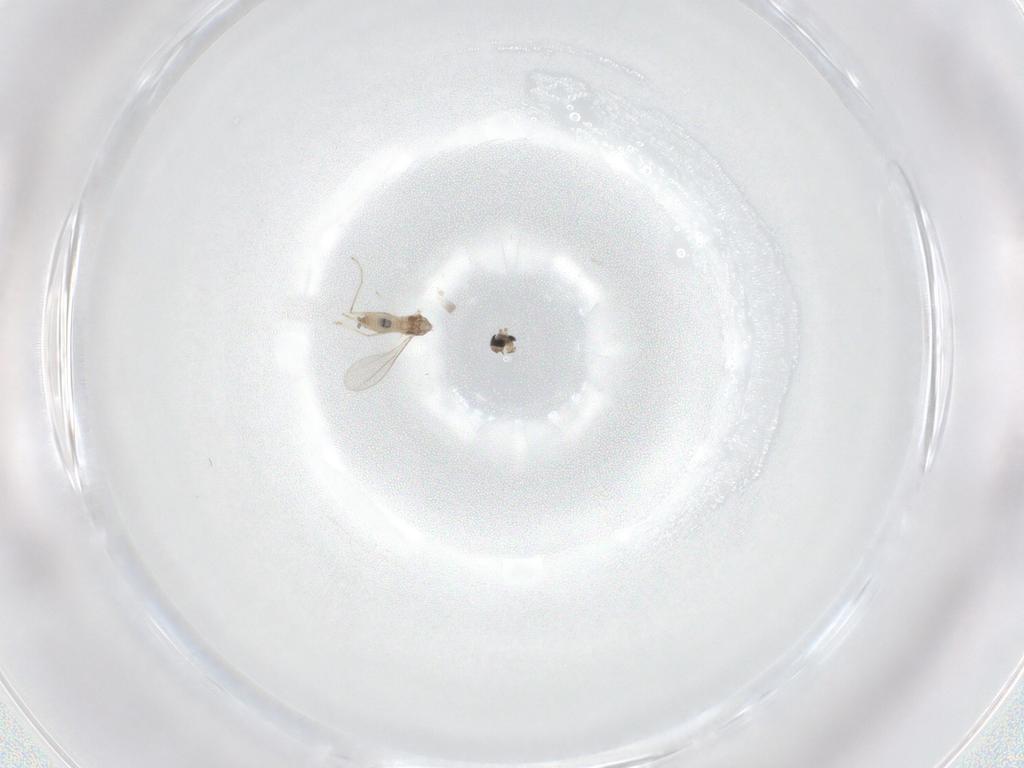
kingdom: Animalia
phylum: Arthropoda
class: Insecta
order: Diptera
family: Cecidomyiidae
